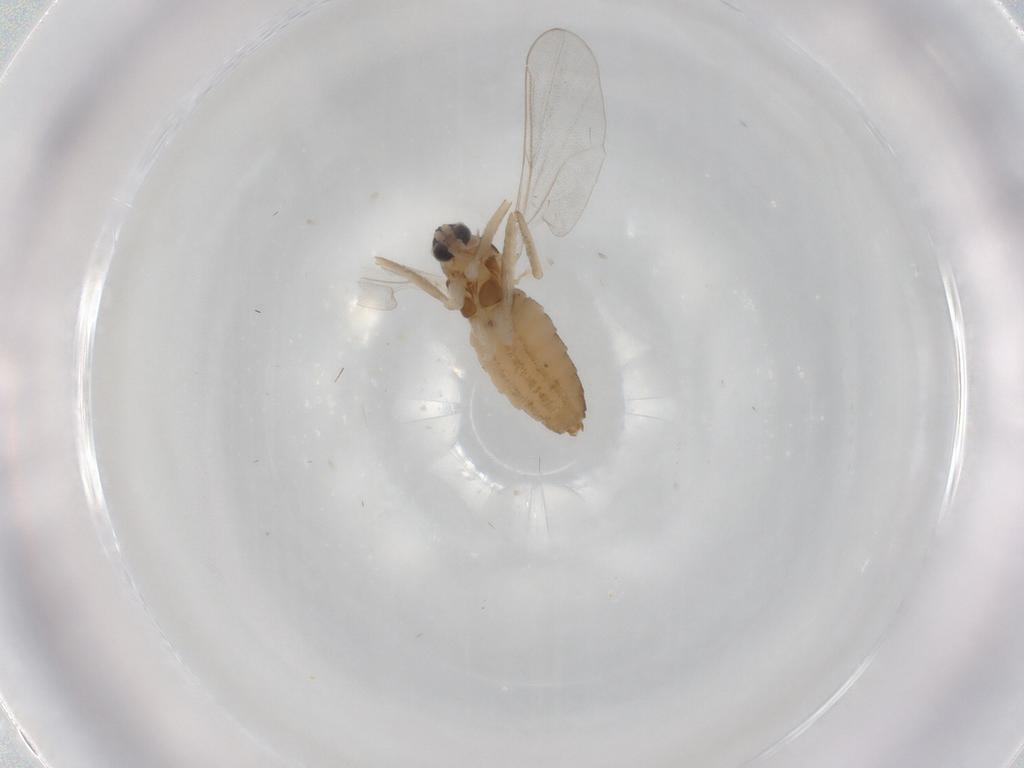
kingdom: Animalia
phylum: Arthropoda
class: Insecta
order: Diptera
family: Cecidomyiidae
